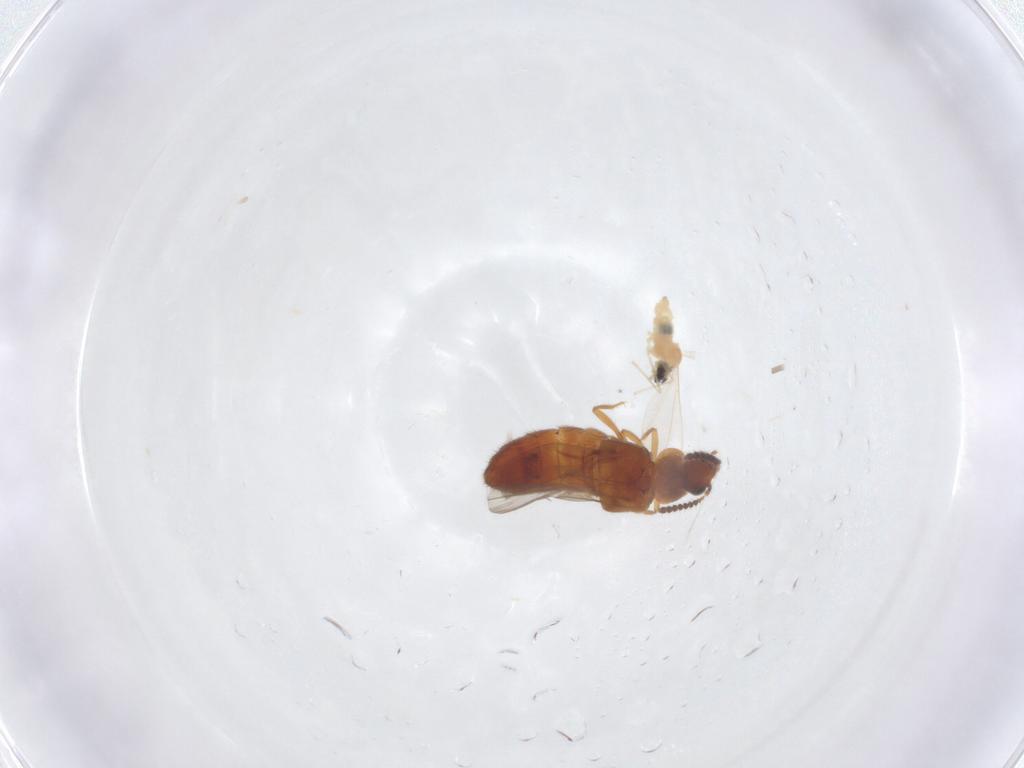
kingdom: Animalia
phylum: Arthropoda
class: Insecta
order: Diptera
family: Cecidomyiidae
